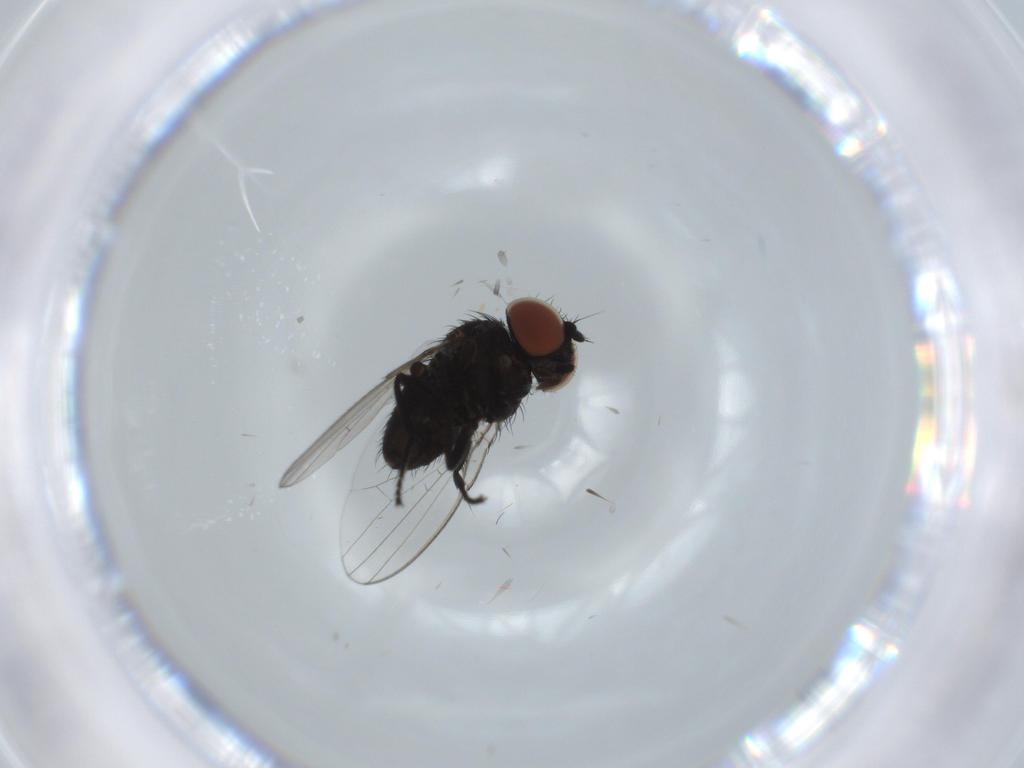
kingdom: Animalia
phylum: Arthropoda
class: Insecta
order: Diptera
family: Milichiidae
